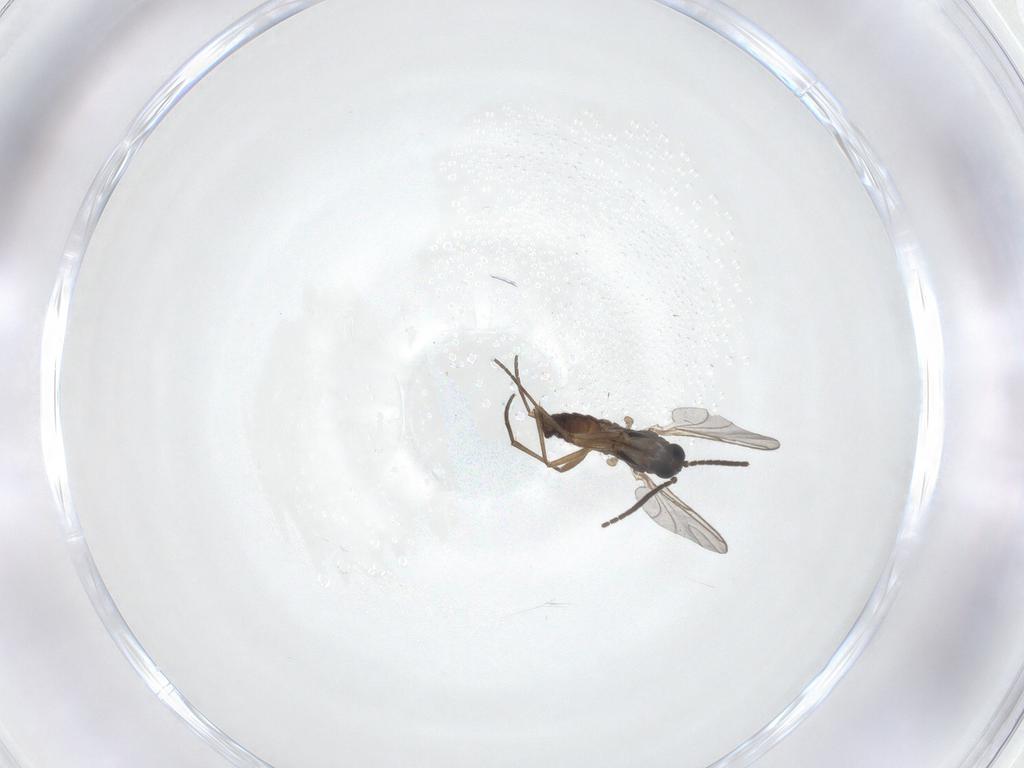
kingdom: Animalia
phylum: Arthropoda
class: Insecta
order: Diptera
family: Sciaridae
